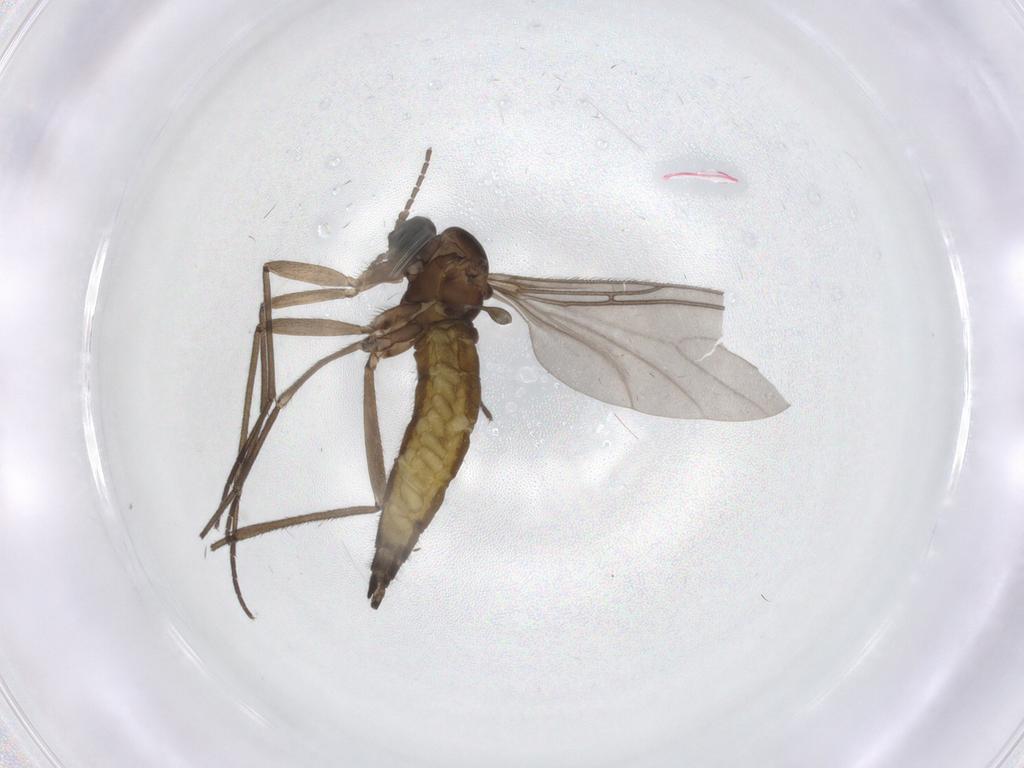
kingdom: Animalia
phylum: Arthropoda
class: Insecta
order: Diptera
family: Sciaridae
